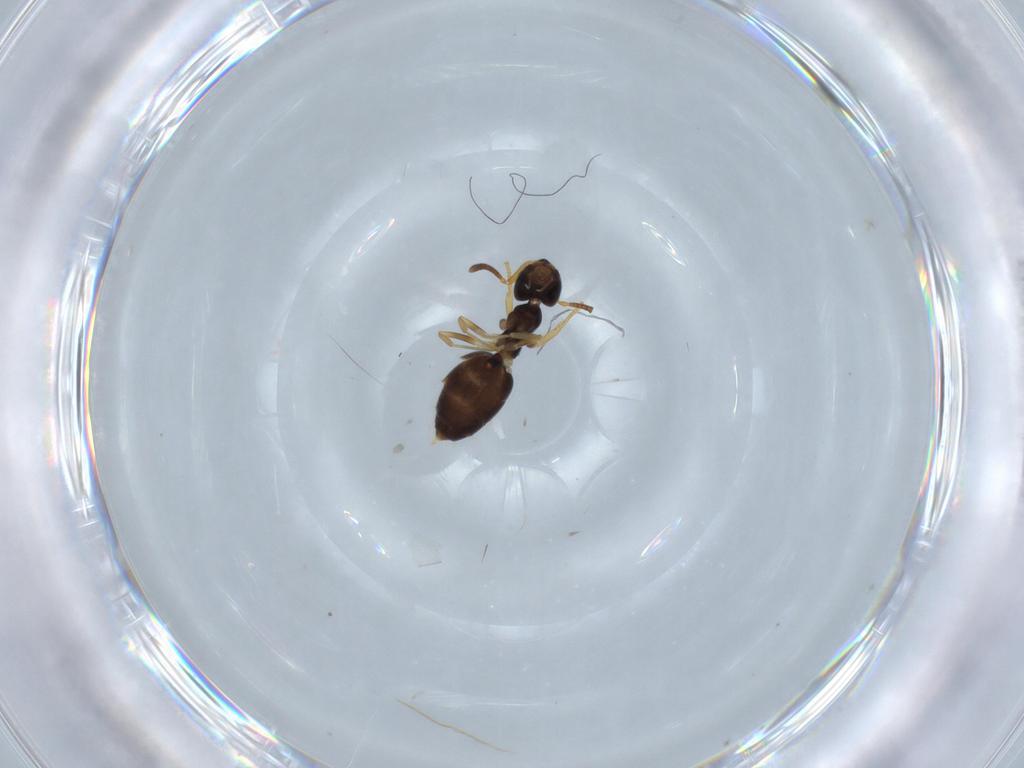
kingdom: Animalia
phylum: Arthropoda
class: Insecta
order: Hymenoptera
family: Formicidae
